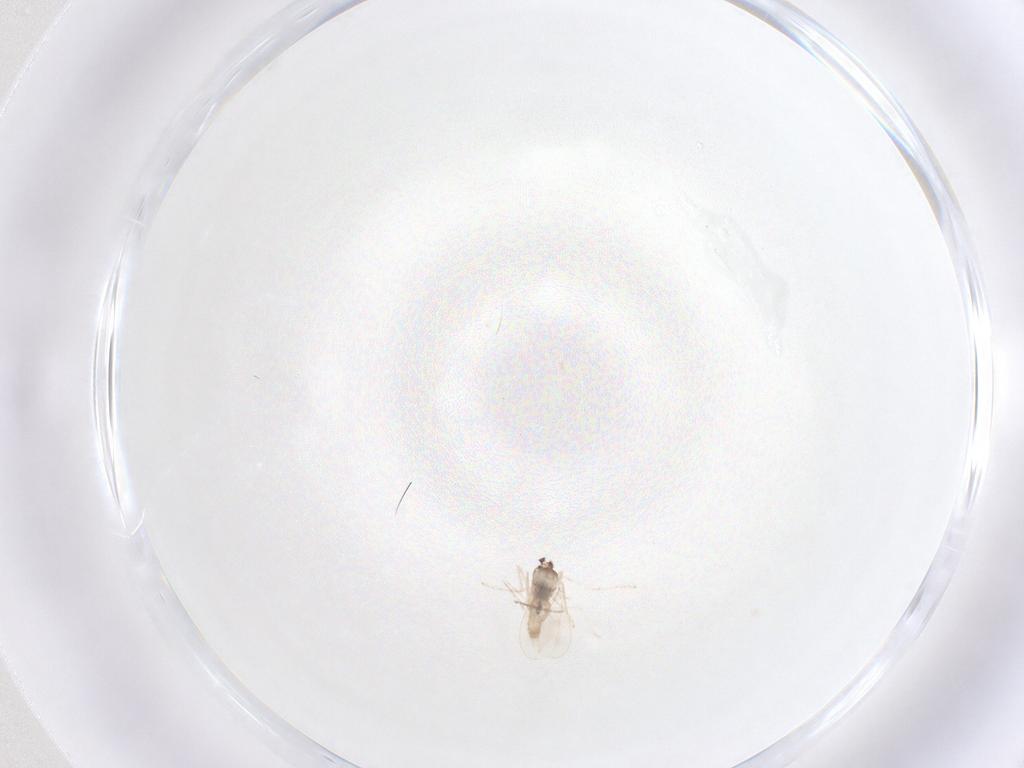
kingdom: Animalia
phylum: Arthropoda
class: Insecta
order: Diptera
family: Cecidomyiidae
